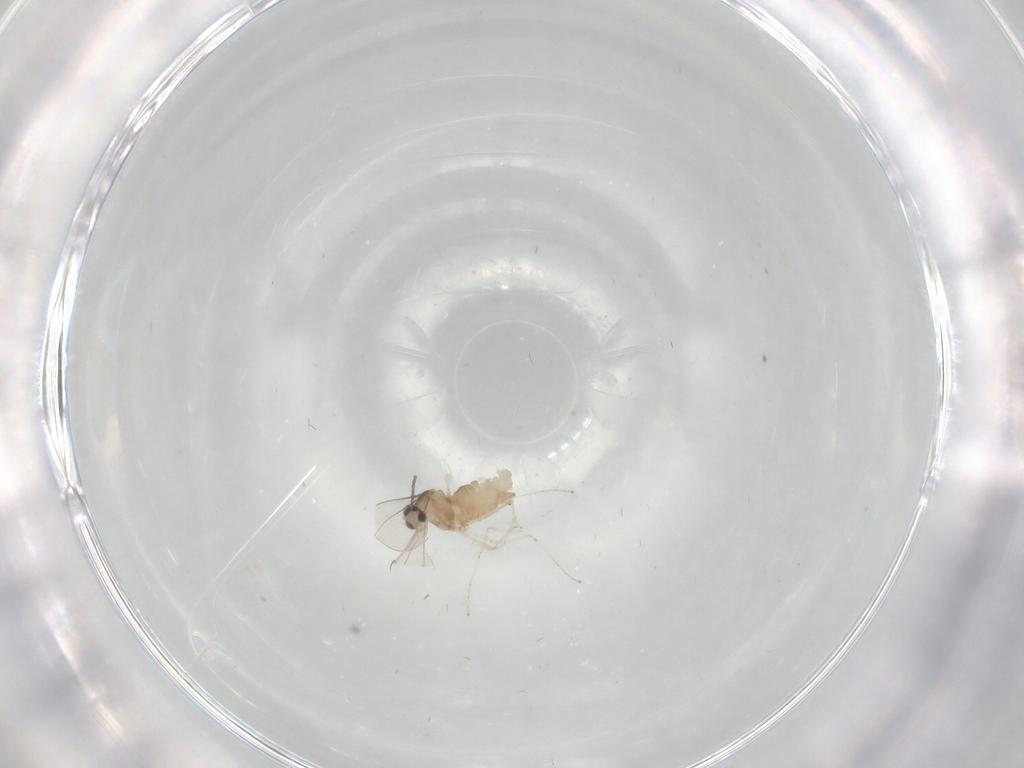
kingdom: Animalia
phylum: Arthropoda
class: Insecta
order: Diptera
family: Cecidomyiidae
